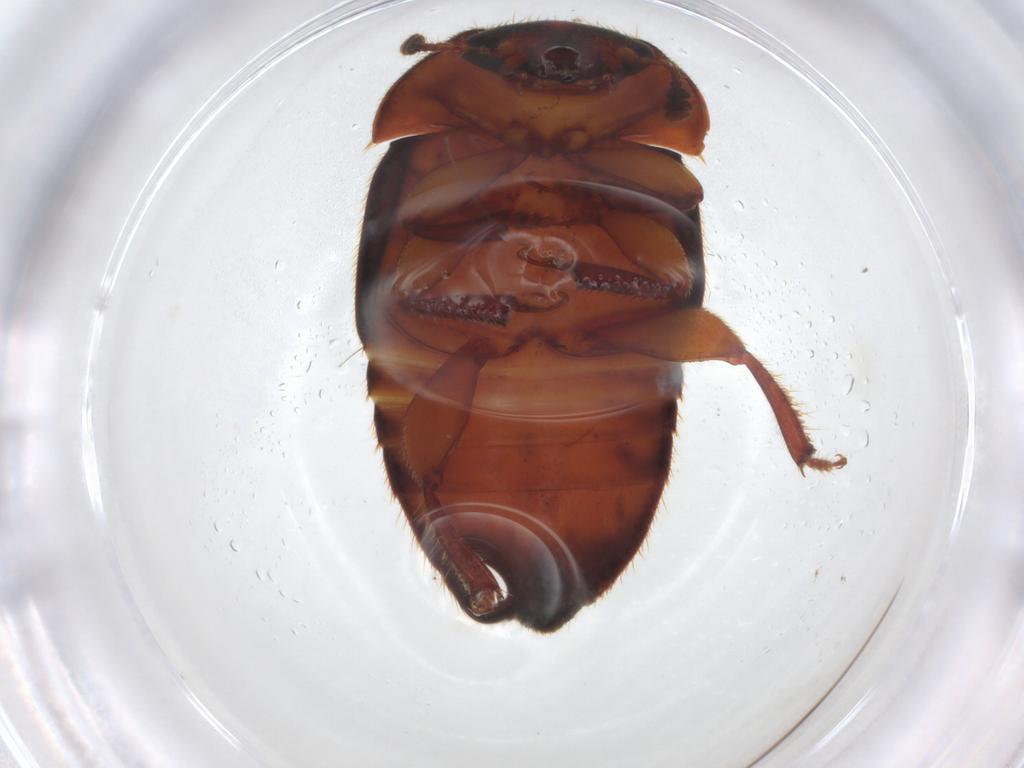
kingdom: Animalia
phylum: Arthropoda
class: Insecta
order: Coleoptera
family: Nitidulidae
